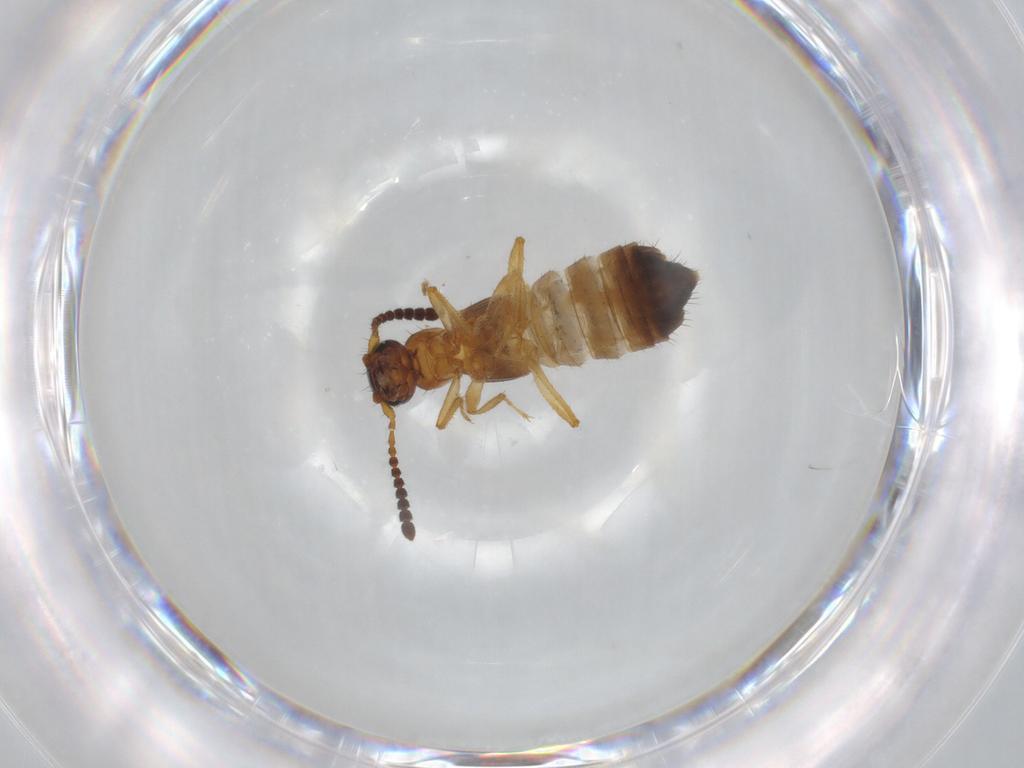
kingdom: Animalia
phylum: Arthropoda
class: Insecta
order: Coleoptera
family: Staphylinidae
